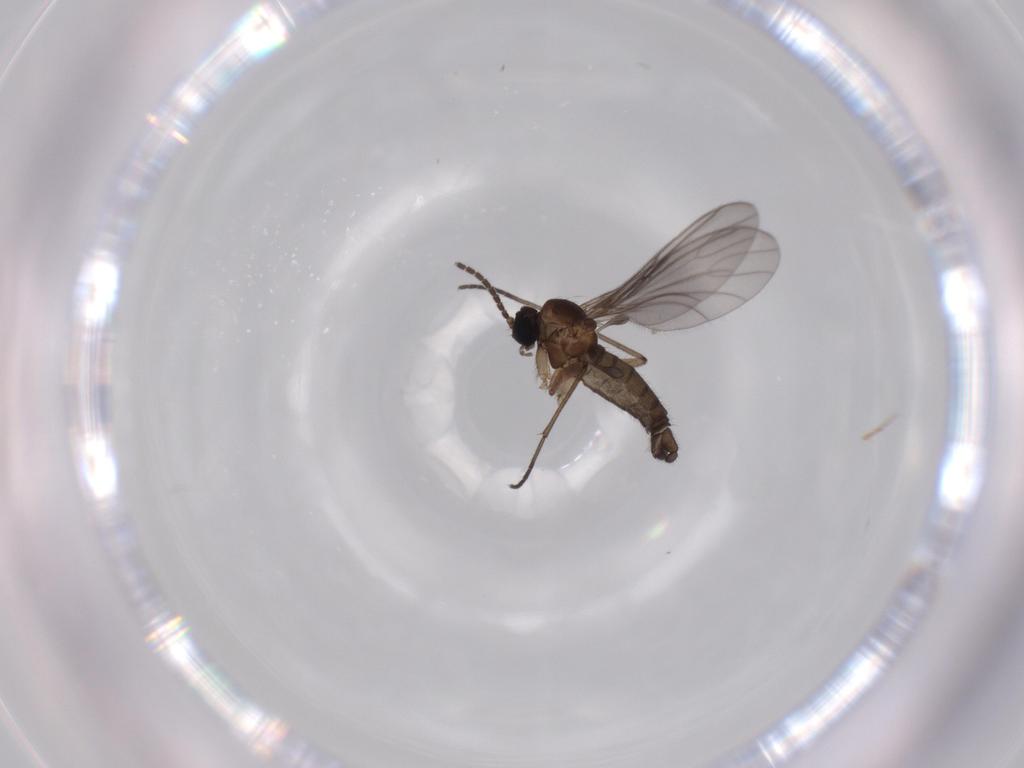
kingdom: Animalia
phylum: Arthropoda
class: Insecta
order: Diptera
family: Sciaridae
